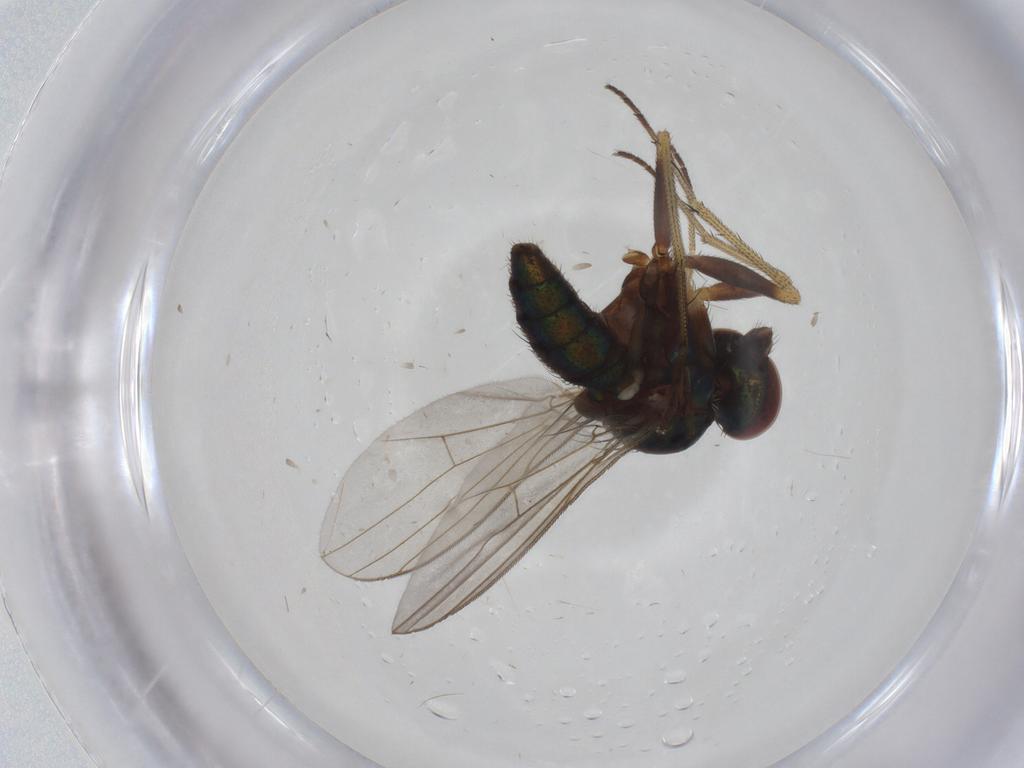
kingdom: Animalia
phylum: Arthropoda
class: Insecta
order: Diptera
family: Dolichopodidae
